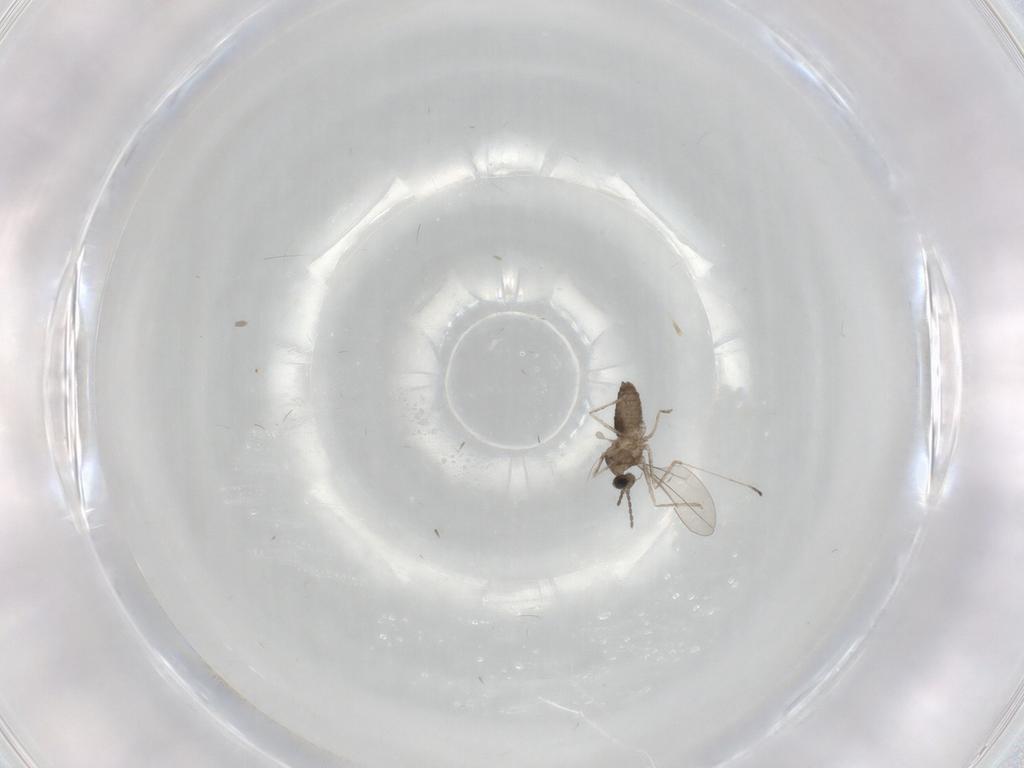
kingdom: Animalia
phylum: Arthropoda
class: Insecta
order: Diptera
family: Cecidomyiidae
